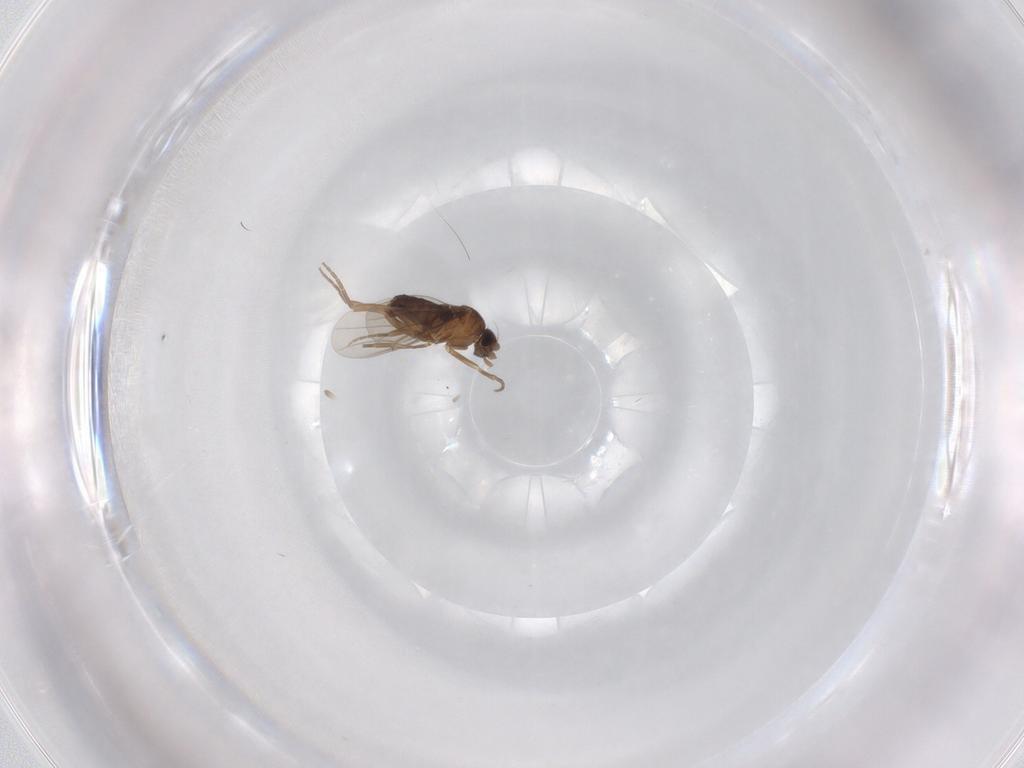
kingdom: Animalia
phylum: Arthropoda
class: Insecta
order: Diptera
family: Phoridae
